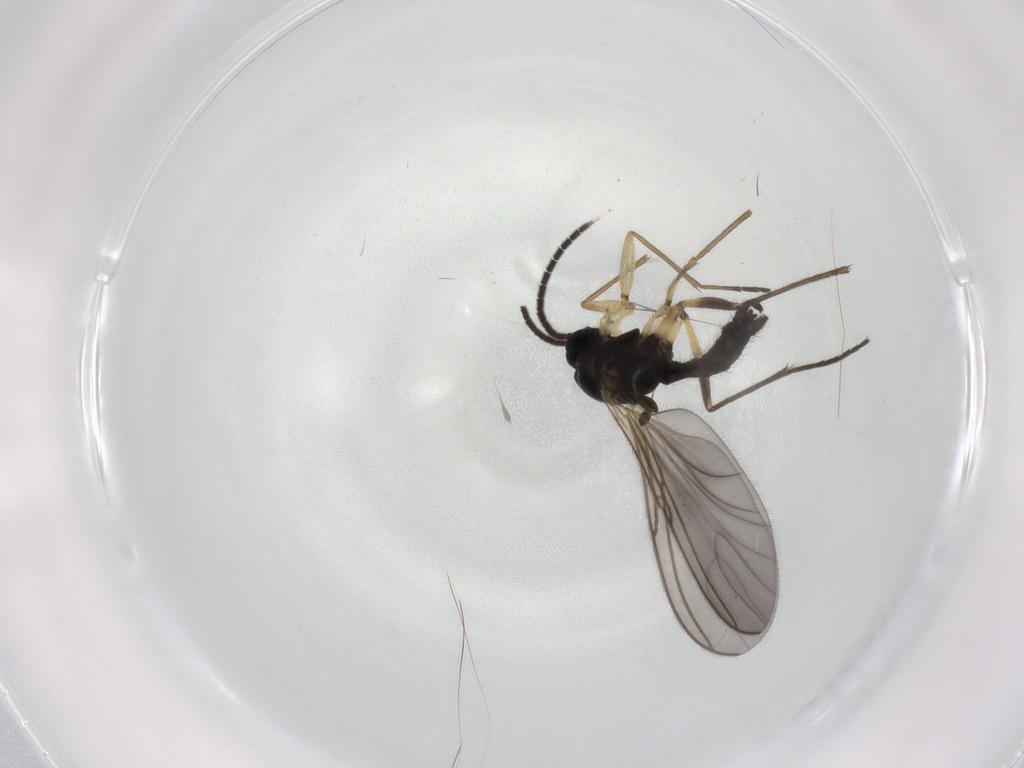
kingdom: Animalia
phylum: Arthropoda
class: Insecta
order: Diptera
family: Sciaridae
